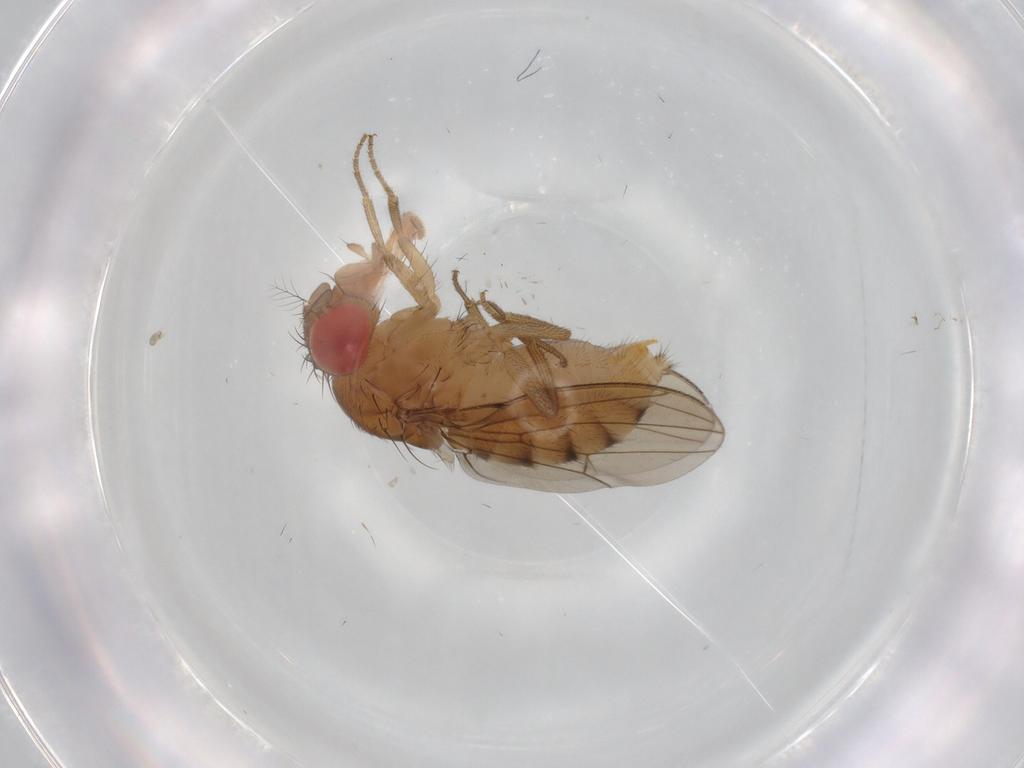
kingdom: Animalia
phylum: Arthropoda
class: Insecta
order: Diptera
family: Drosophilidae
